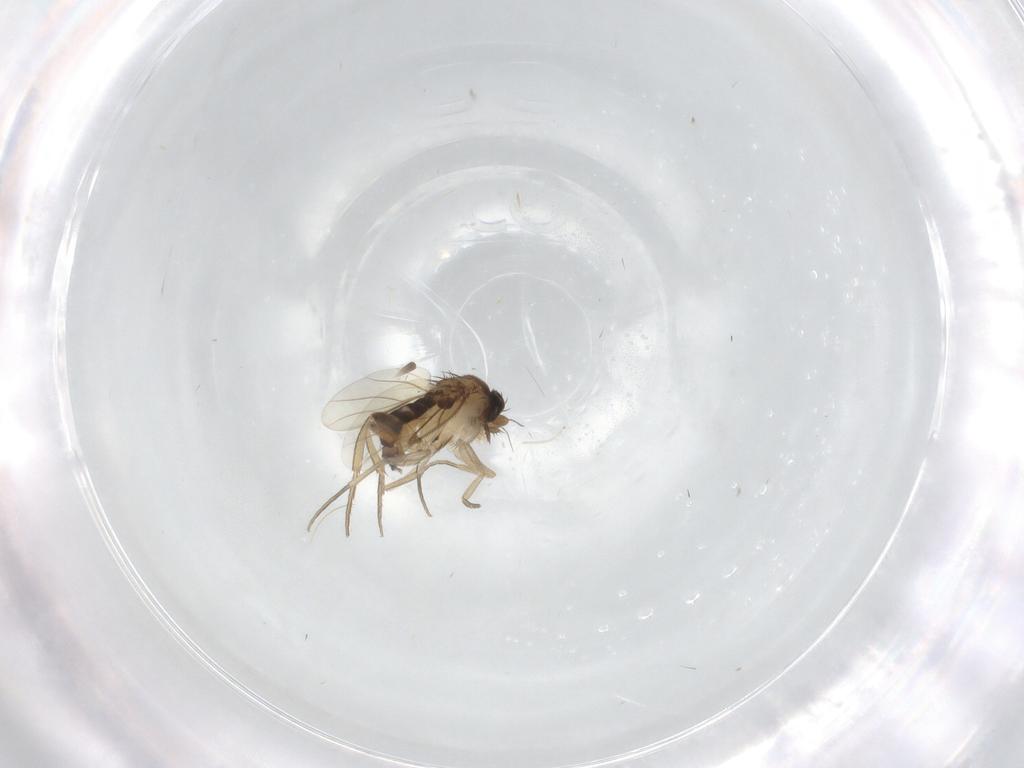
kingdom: Animalia
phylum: Arthropoda
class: Insecta
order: Diptera
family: Phoridae
